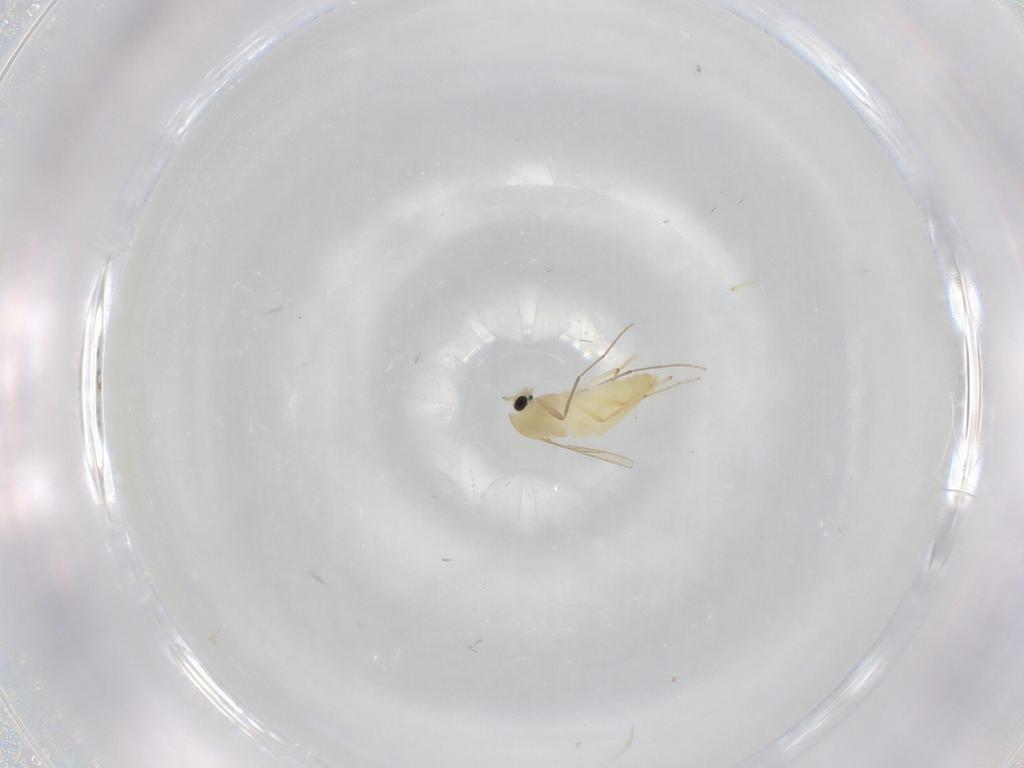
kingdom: Animalia
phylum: Arthropoda
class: Insecta
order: Diptera
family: Chironomidae
